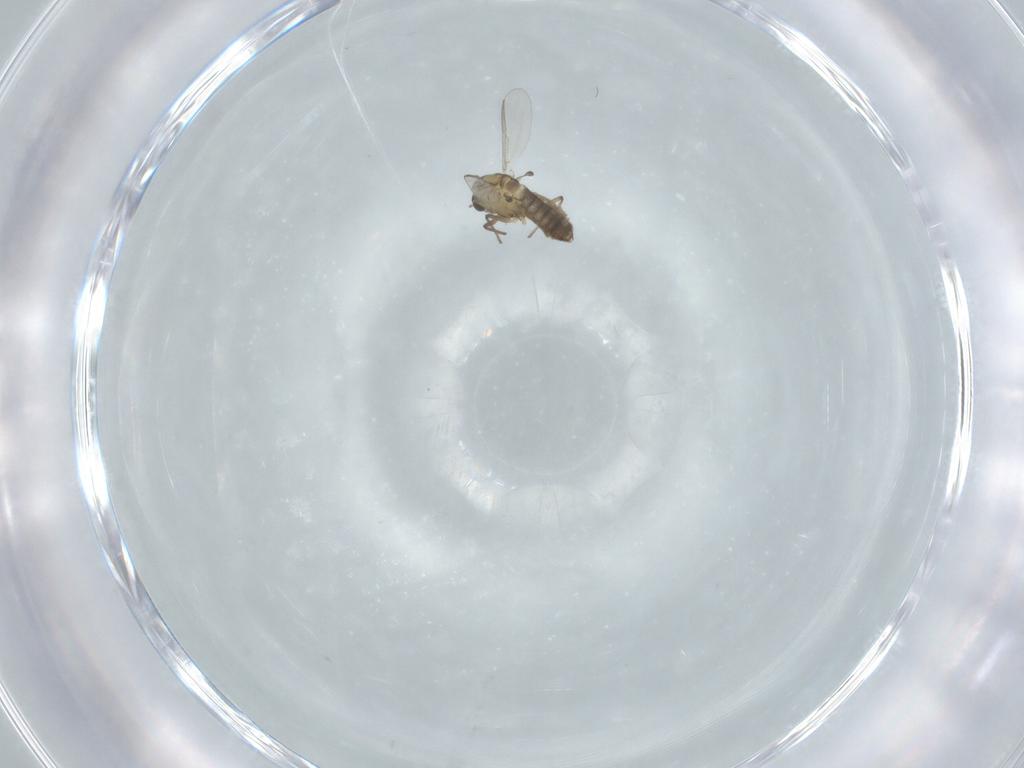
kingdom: Animalia
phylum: Arthropoda
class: Insecta
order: Diptera
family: Chironomidae
